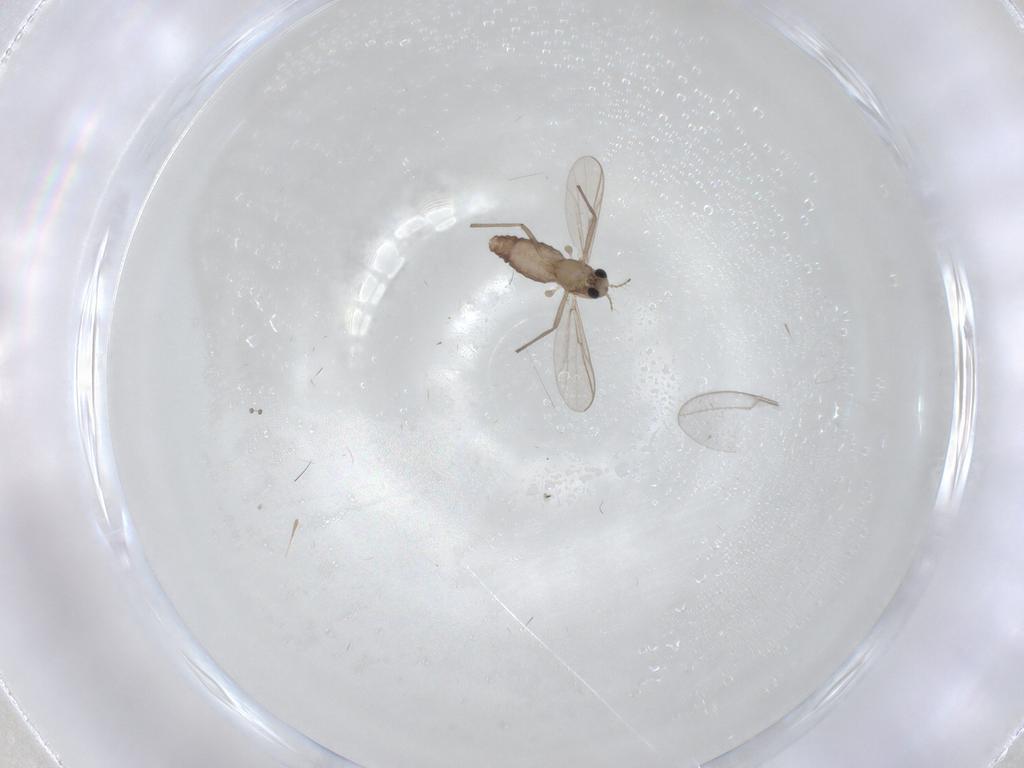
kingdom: Animalia
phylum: Arthropoda
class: Insecta
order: Diptera
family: Chironomidae
